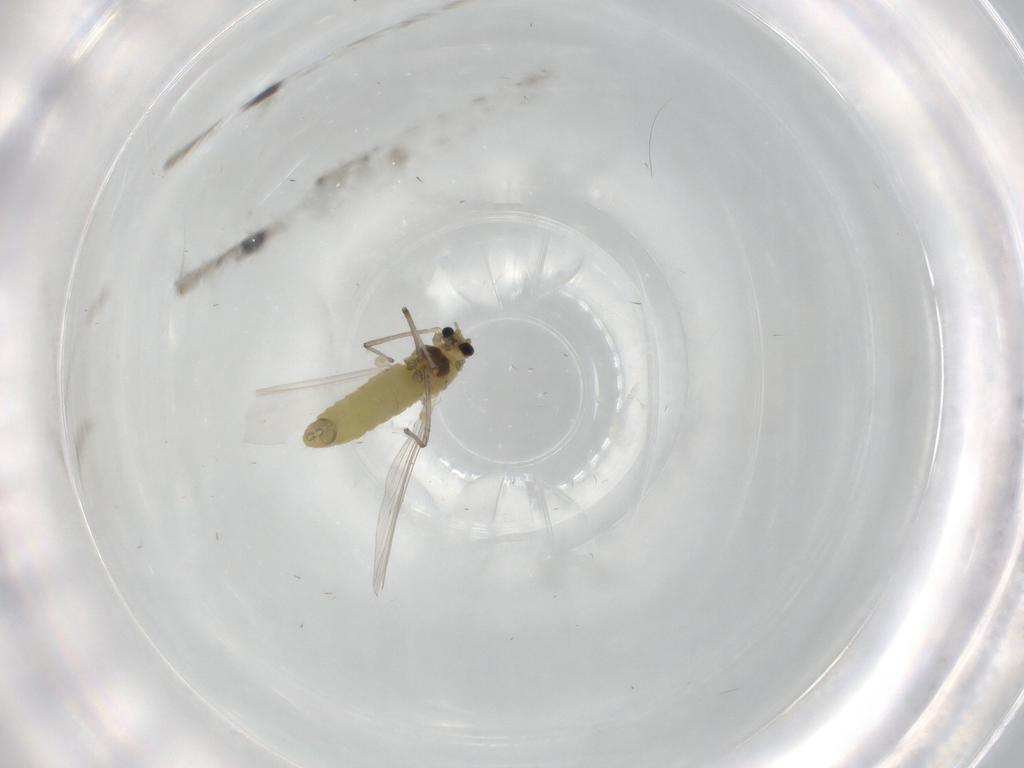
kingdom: Animalia
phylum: Arthropoda
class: Insecta
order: Diptera
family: Chironomidae
